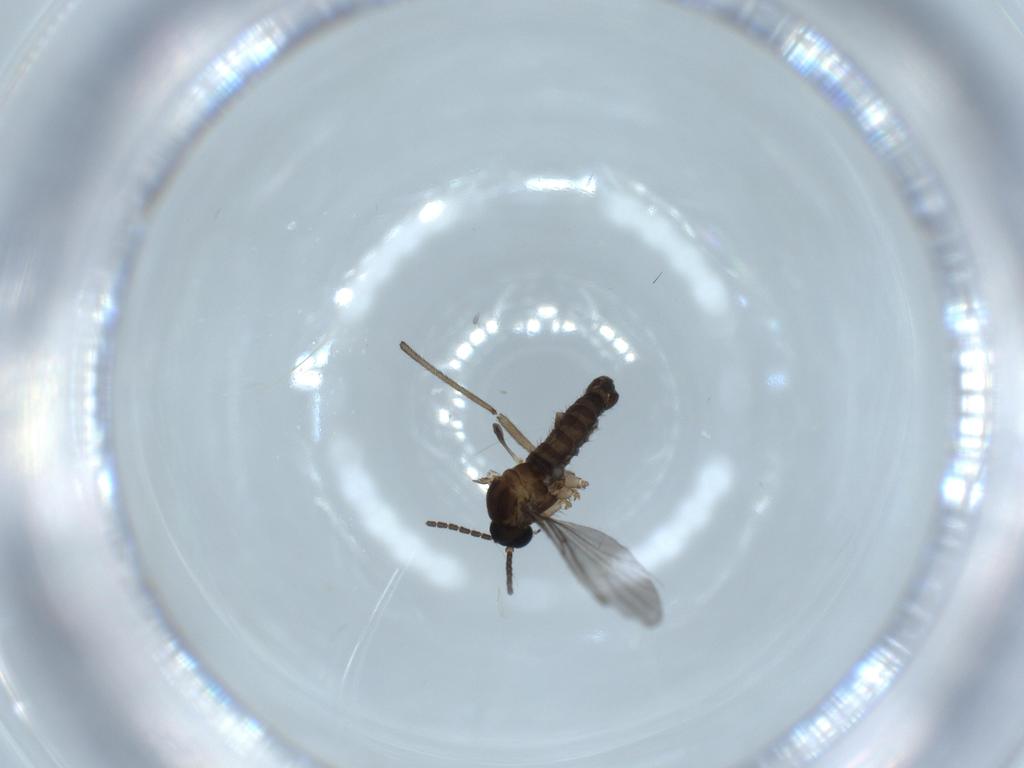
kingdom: Animalia
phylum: Arthropoda
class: Insecta
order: Diptera
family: Sciaridae
